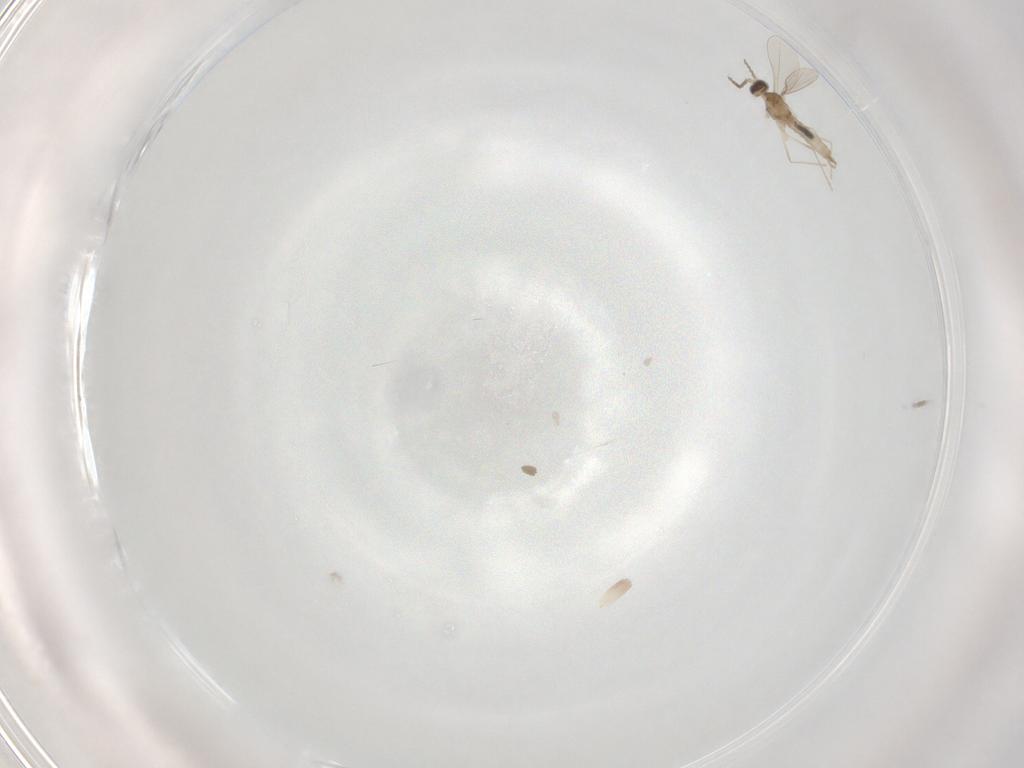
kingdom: Animalia
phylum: Arthropoda
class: Insecta
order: Diptera
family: Cecidomyiidae
